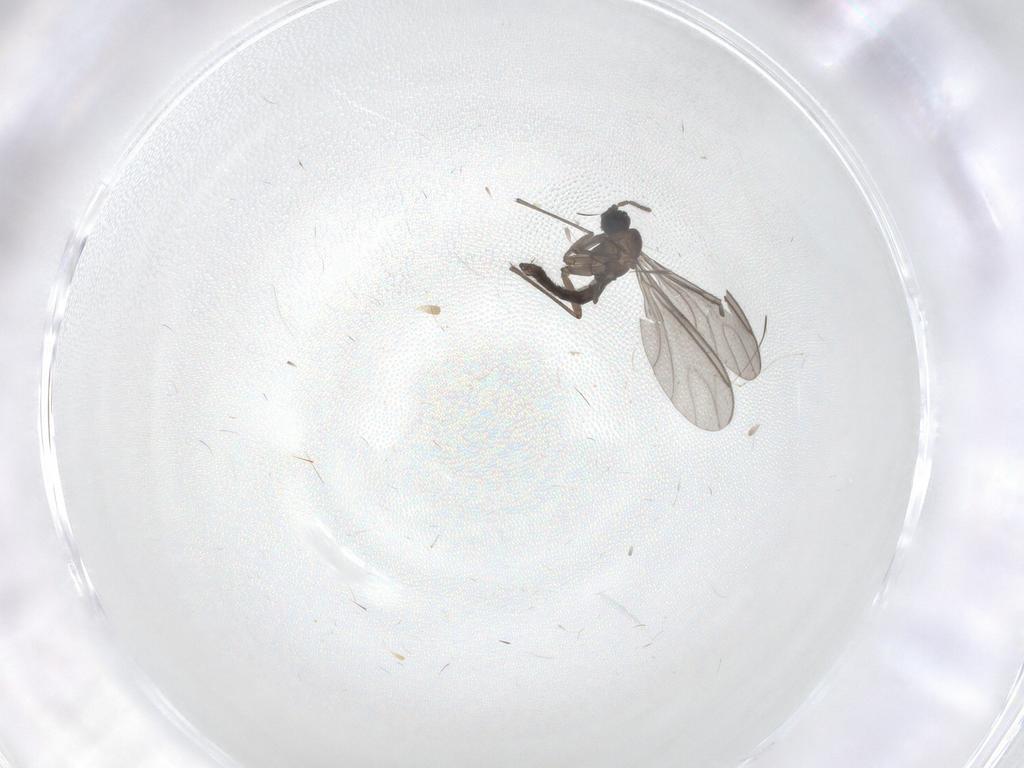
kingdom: Animalia
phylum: Arthropoda
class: Insecta
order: Diptera
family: Sciaridae
